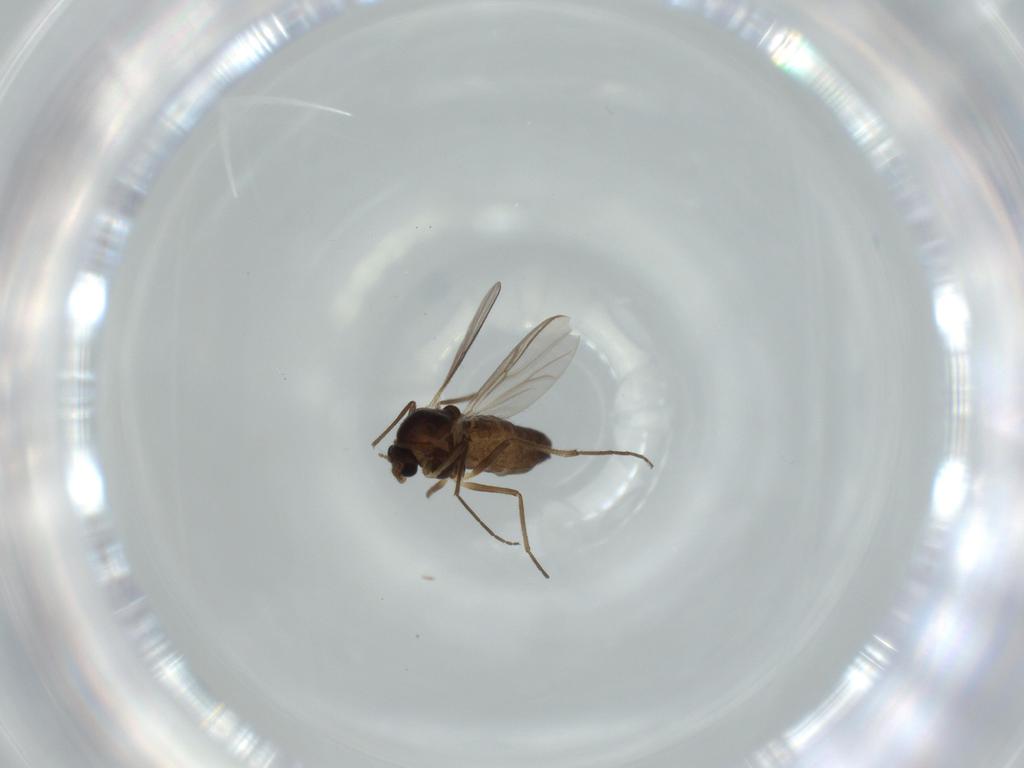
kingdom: Animalia
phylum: Arthropoda
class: Insecta
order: Diptera
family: Chironomidae
